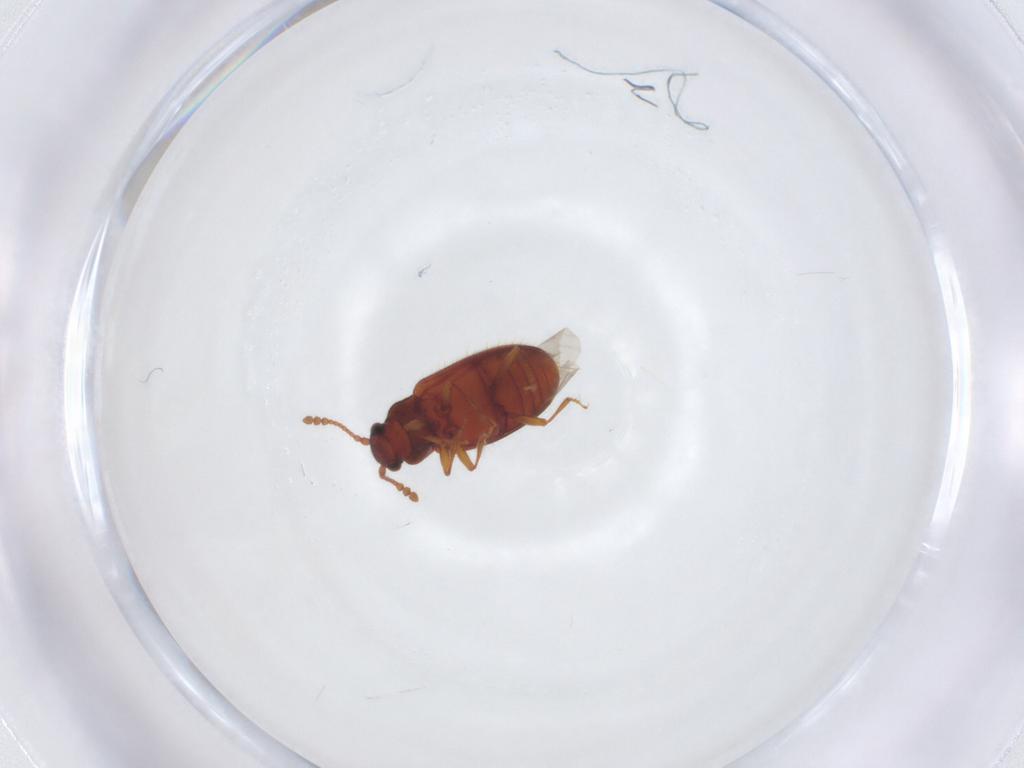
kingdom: Animalia
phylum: Arthropoda
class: Insecta
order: Coleoptera
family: Cryptophagidae
